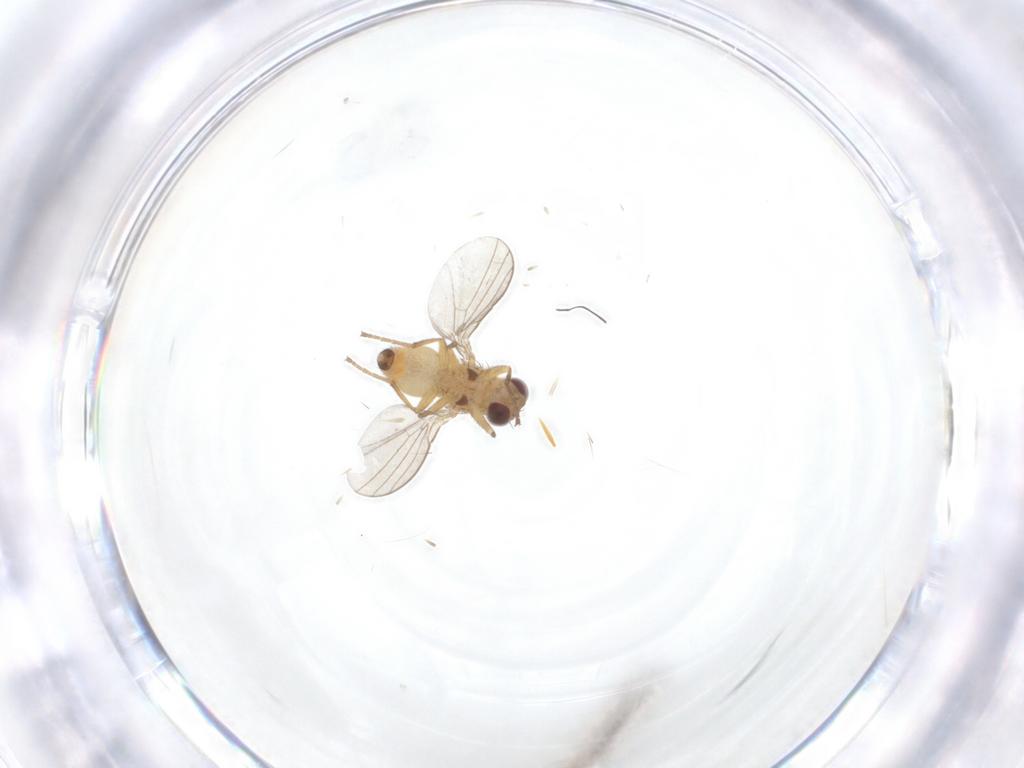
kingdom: Animalia
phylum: Arthropoda
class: Insecta
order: Diptera
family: Agromyzidae
